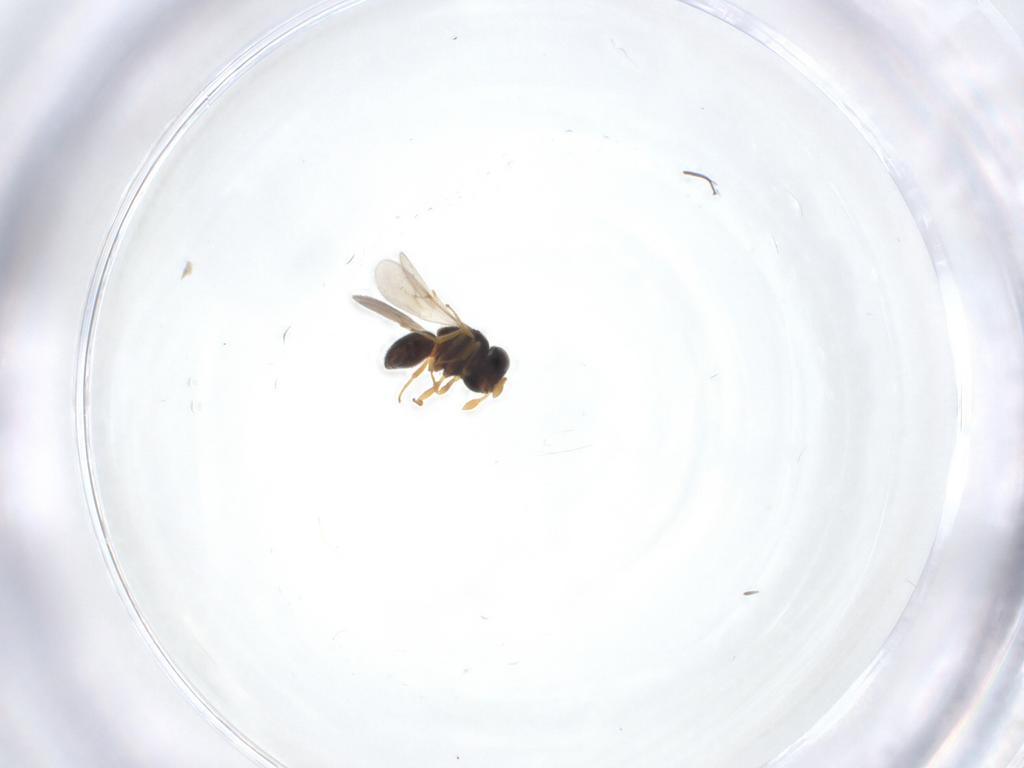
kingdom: Animalia
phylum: Arthropoda
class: Insecta
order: Hymenoptera
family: Scelionidae
